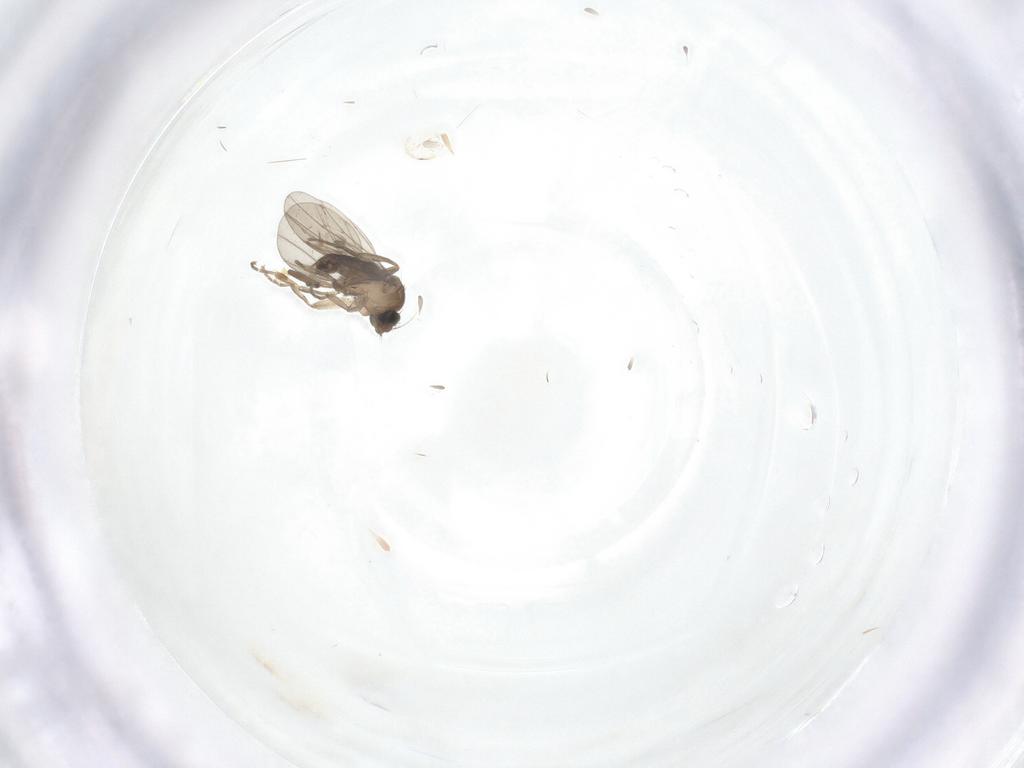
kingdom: Animalia
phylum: Arthropoda
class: Insecta
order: Diptera
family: Phoridae
